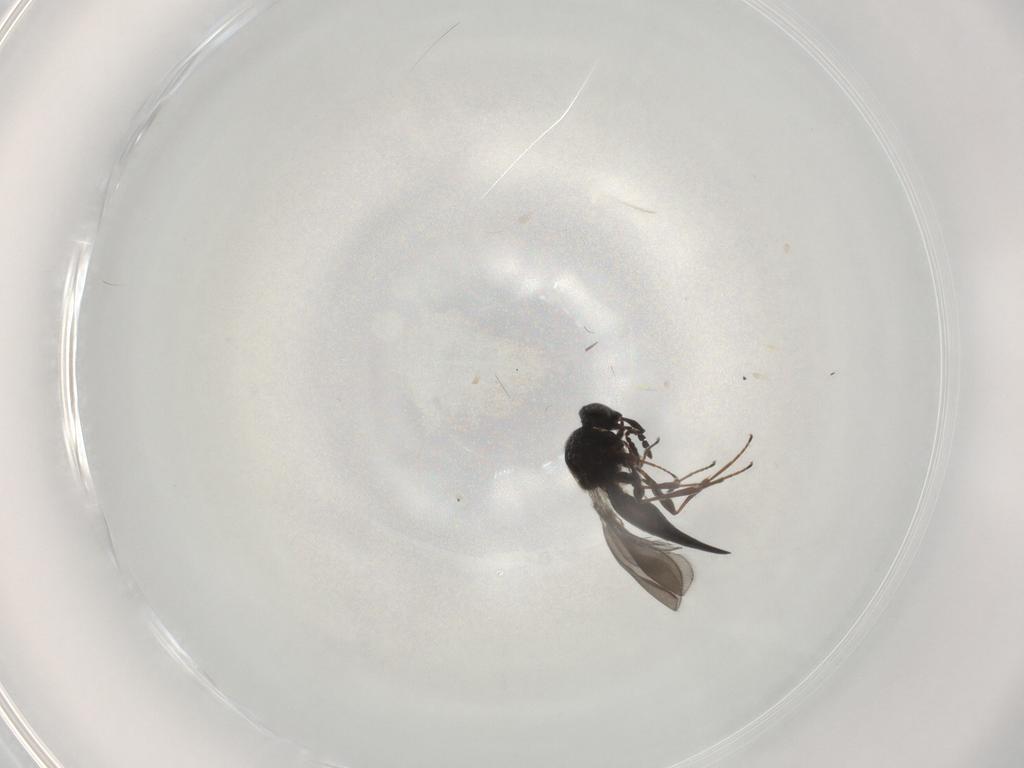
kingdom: Animalia
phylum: Arthropoda
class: Insecta
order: Hymenoptera
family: Platygastridae
